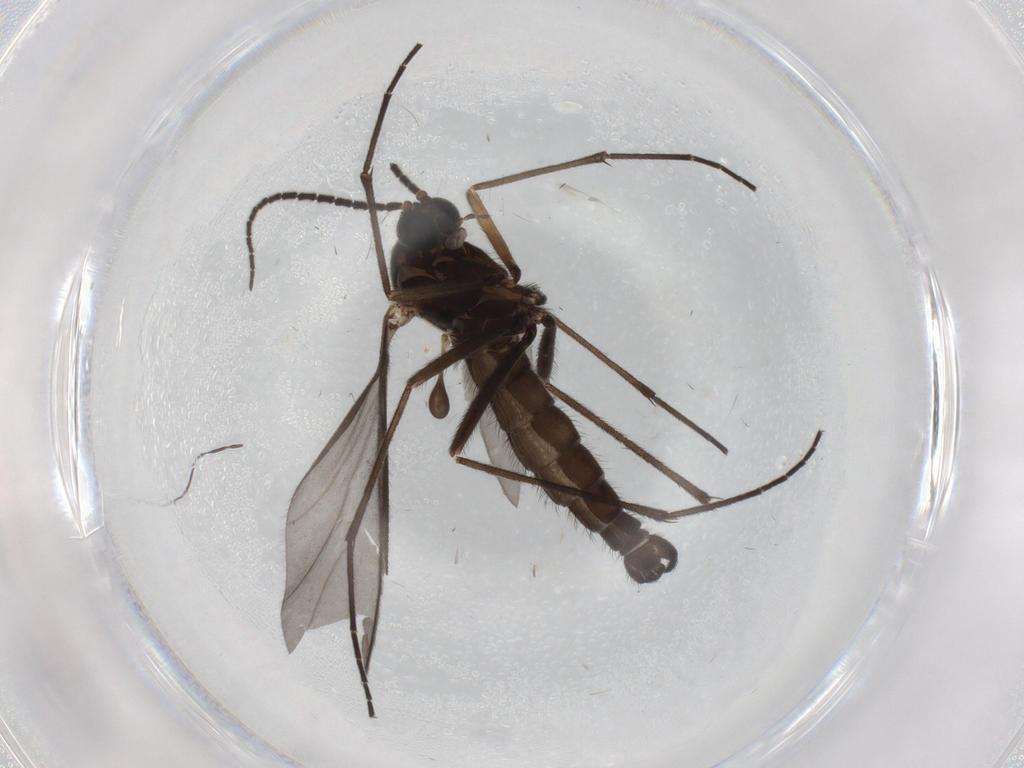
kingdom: Animalia
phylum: Arthropoda
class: Insecta
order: Diptera
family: Sciaridae
